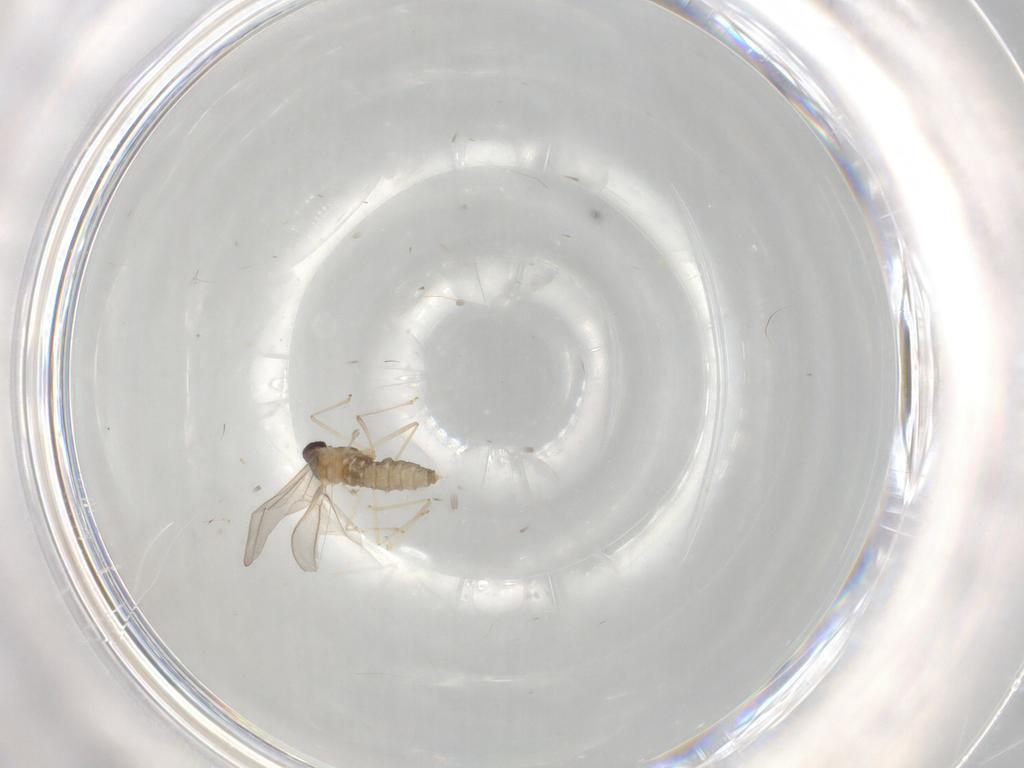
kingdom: Animalia
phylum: Arthropoda
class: Insecta
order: Diptera
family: Cecidomyiidae
